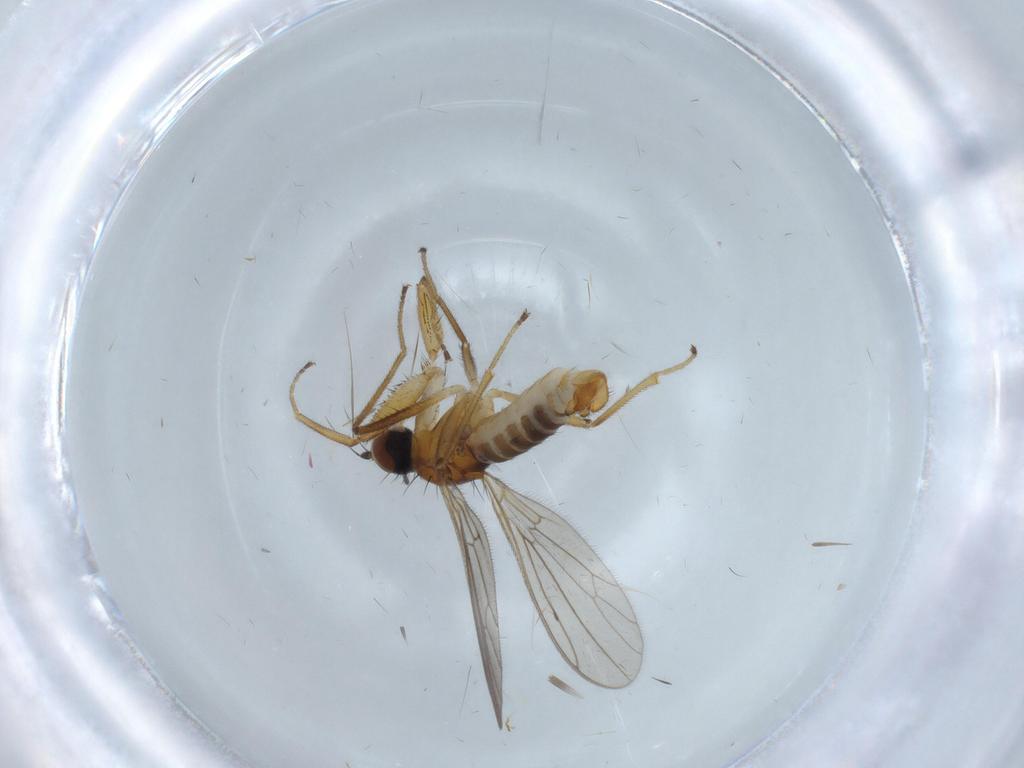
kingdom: Animalia
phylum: Arthropoda
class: Insecta
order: Diptera
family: Empididae
